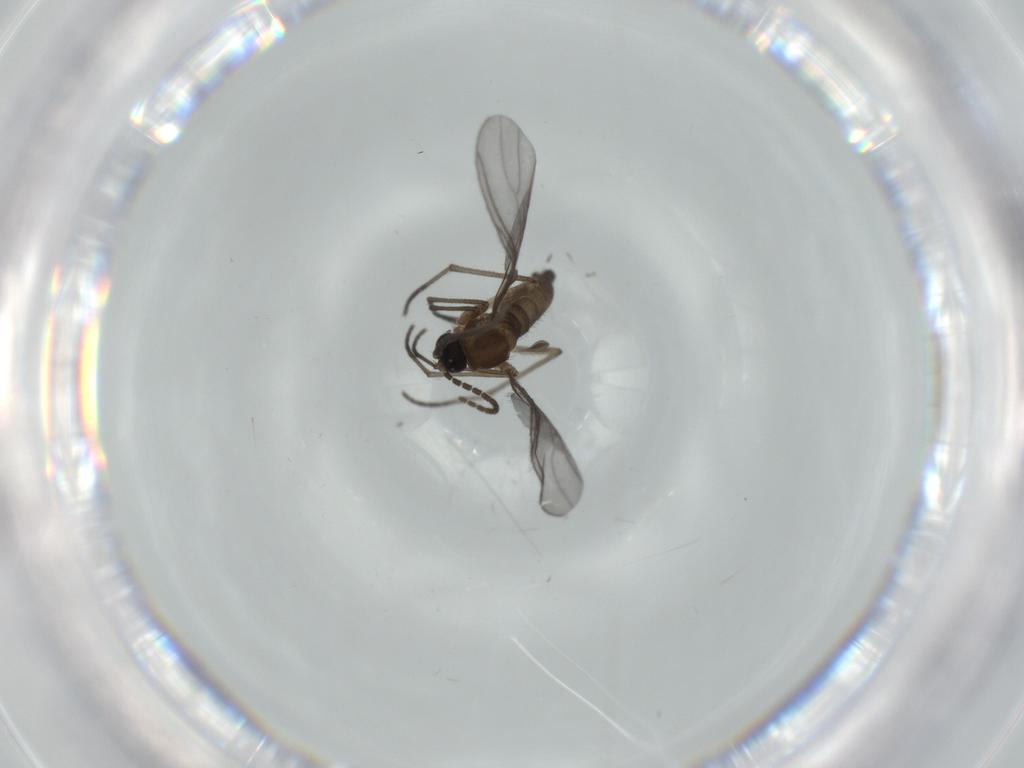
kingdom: Animalia
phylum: Arthropoda
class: Insecta
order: Diptera
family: Sciaridae
